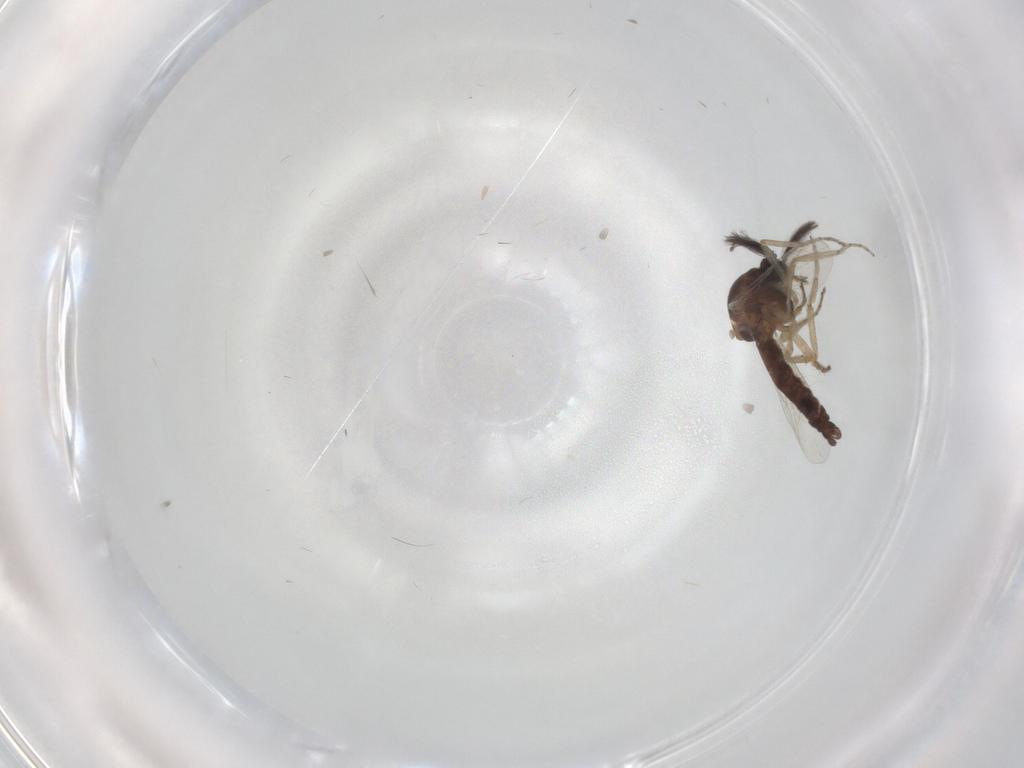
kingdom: Animalia
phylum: Arthropoda
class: Insecta
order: Diptera
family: Ceratopogonidae
